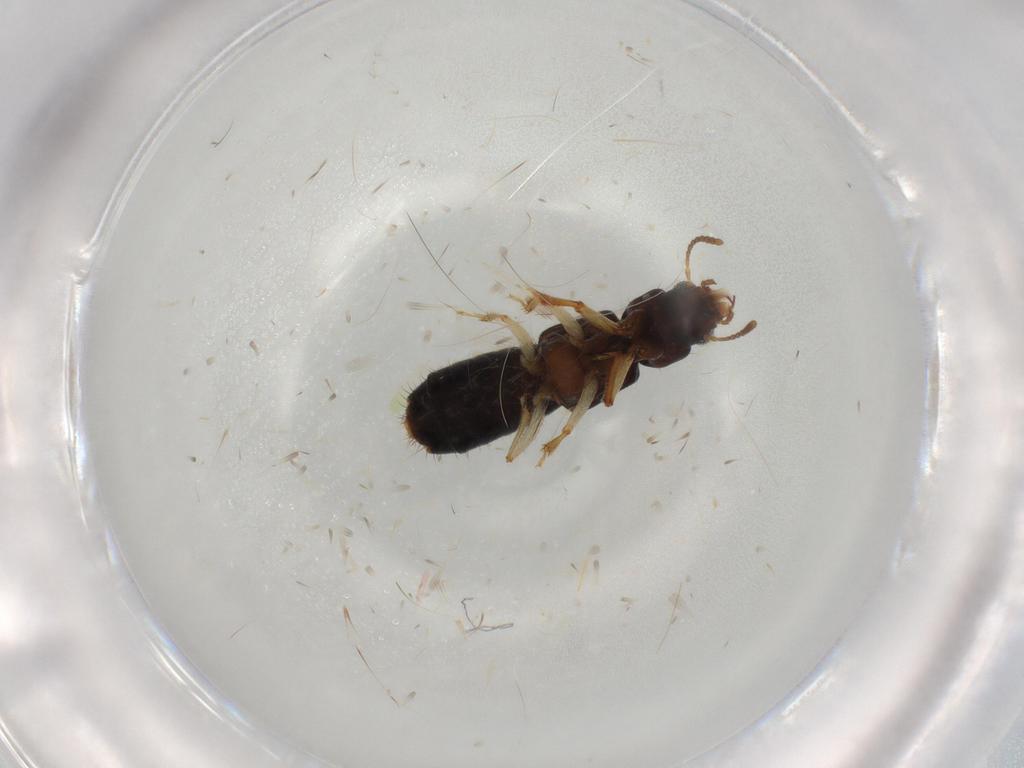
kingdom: Animalia
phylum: Arthropoda
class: Insecta
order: Coleoptera
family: Staphylinidae
